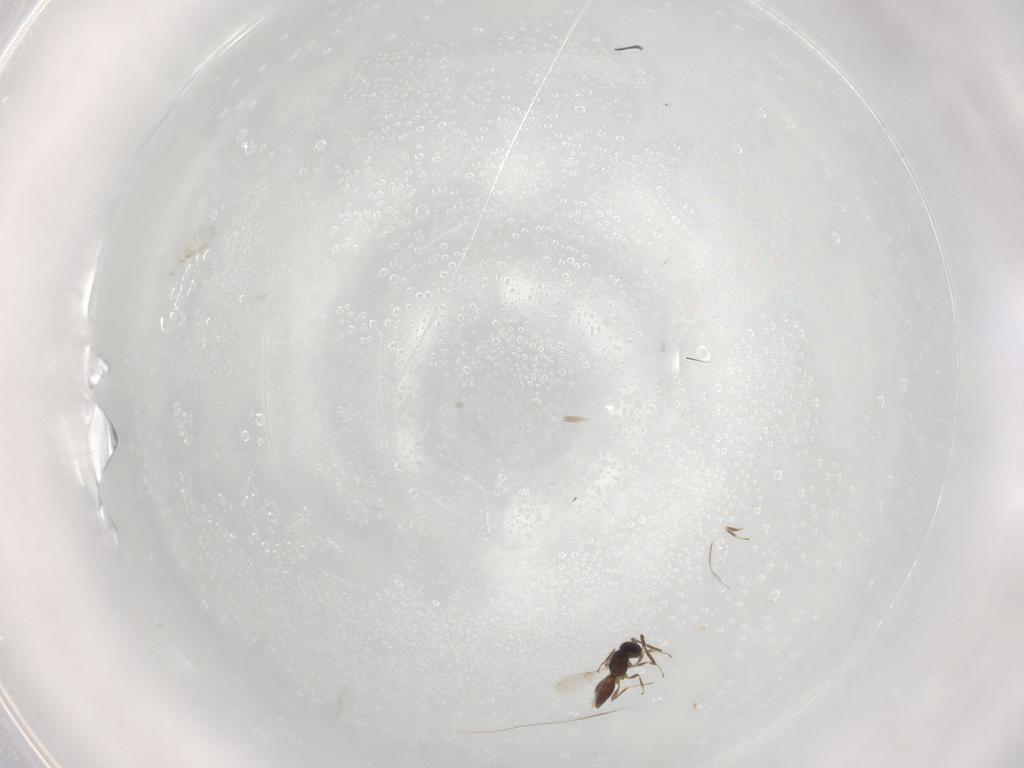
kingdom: Animalia
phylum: Arthropoda
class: Insecta
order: Hymenoptera
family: Scelionidae
